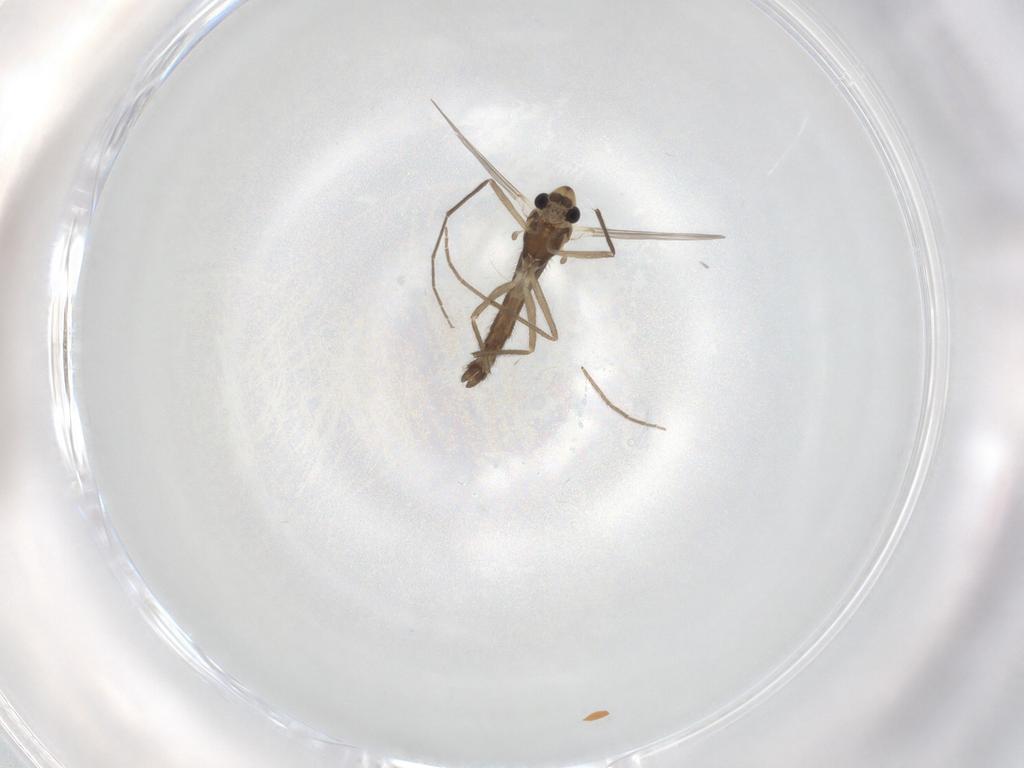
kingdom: Animalia
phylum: Arthropoda
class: Insecta
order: Diptera
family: Chironomidae
